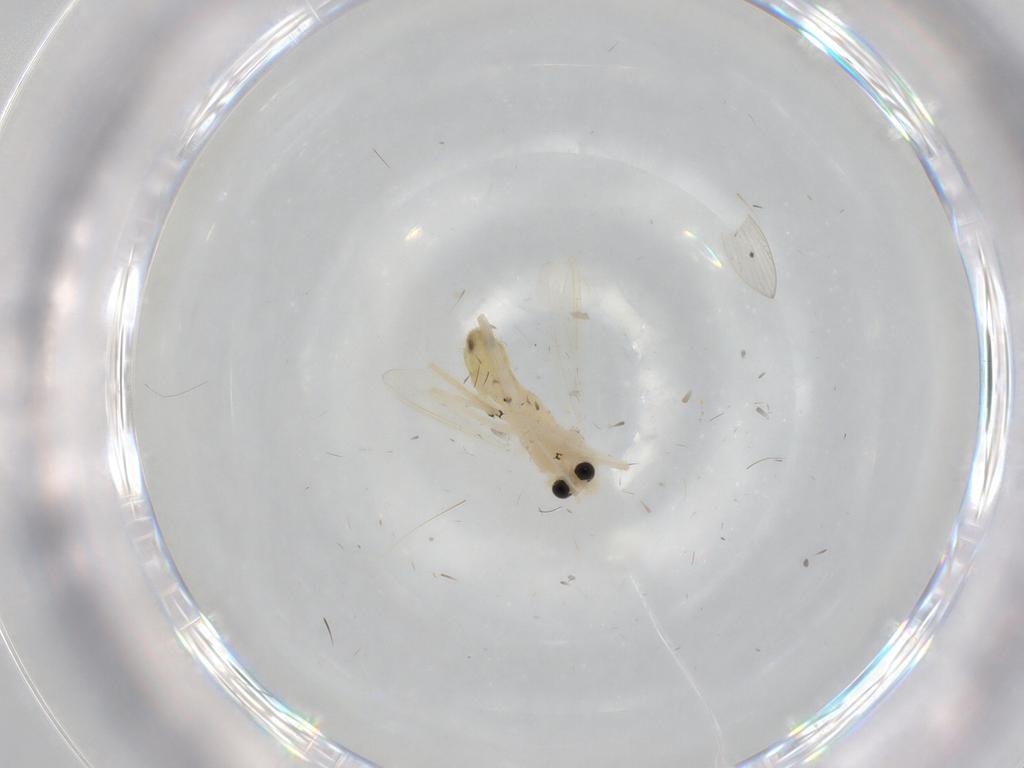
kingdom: Animalia
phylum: Arthropoda
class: Insecta
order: Diptera
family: Chironomidae
